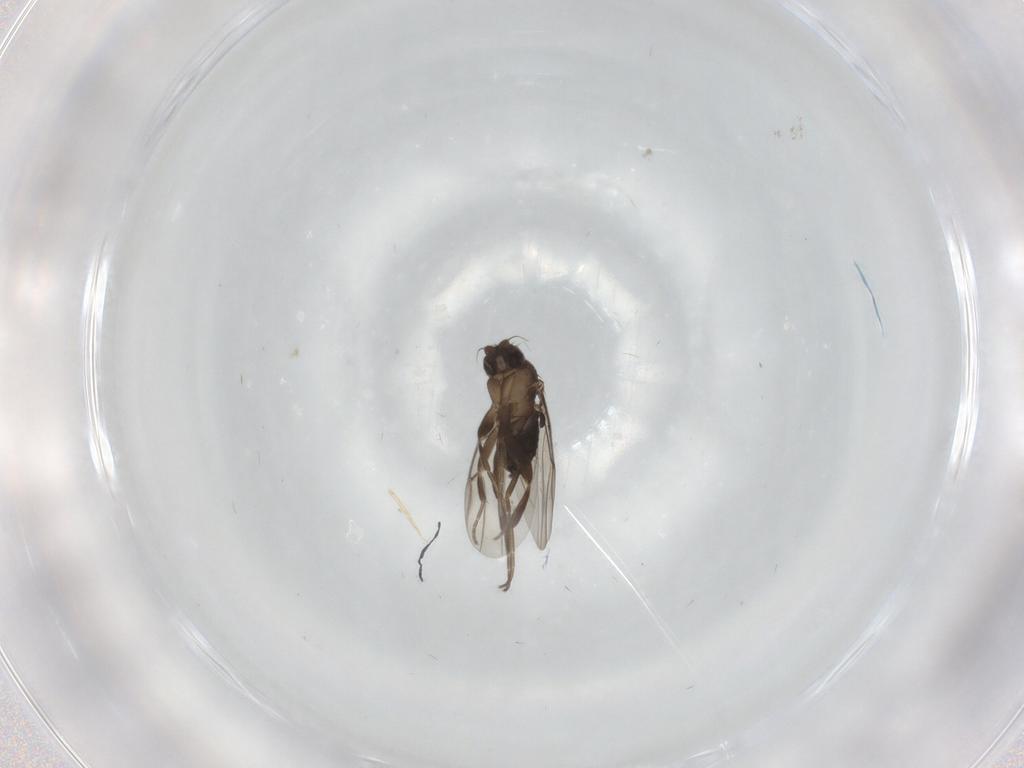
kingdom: Animalia
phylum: Arthropoda
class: Insecta
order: Diptera
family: Phoridae
